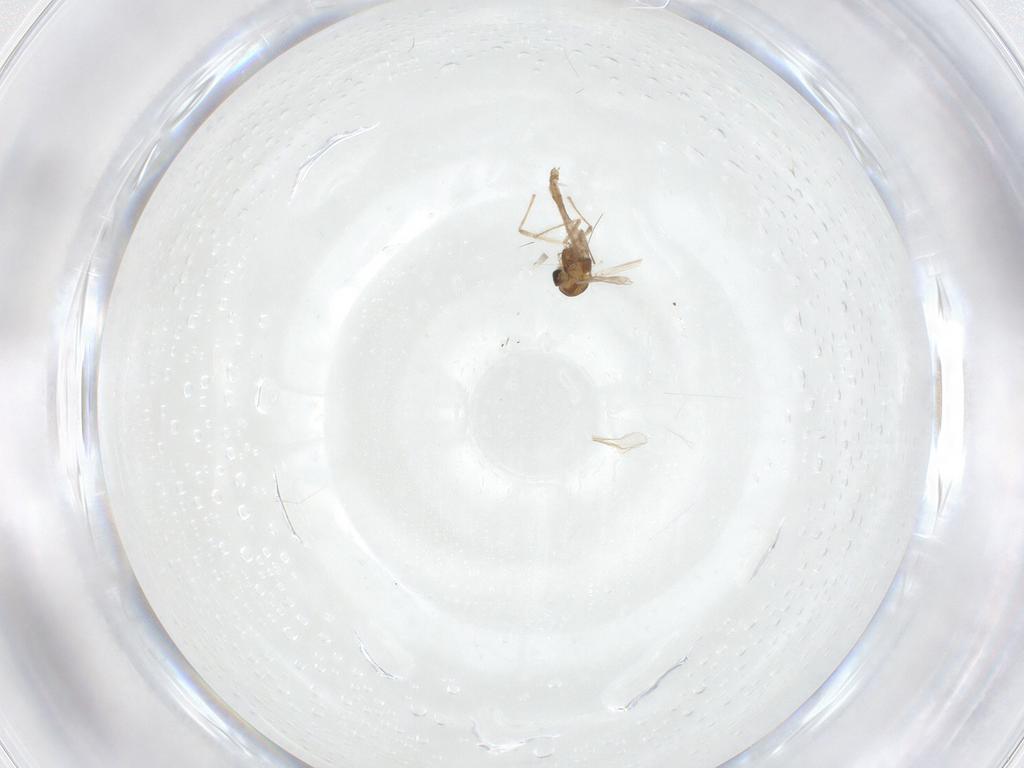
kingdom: Animalia
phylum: Arthropoda
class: Insecta
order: Diptera
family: Chironomidae
